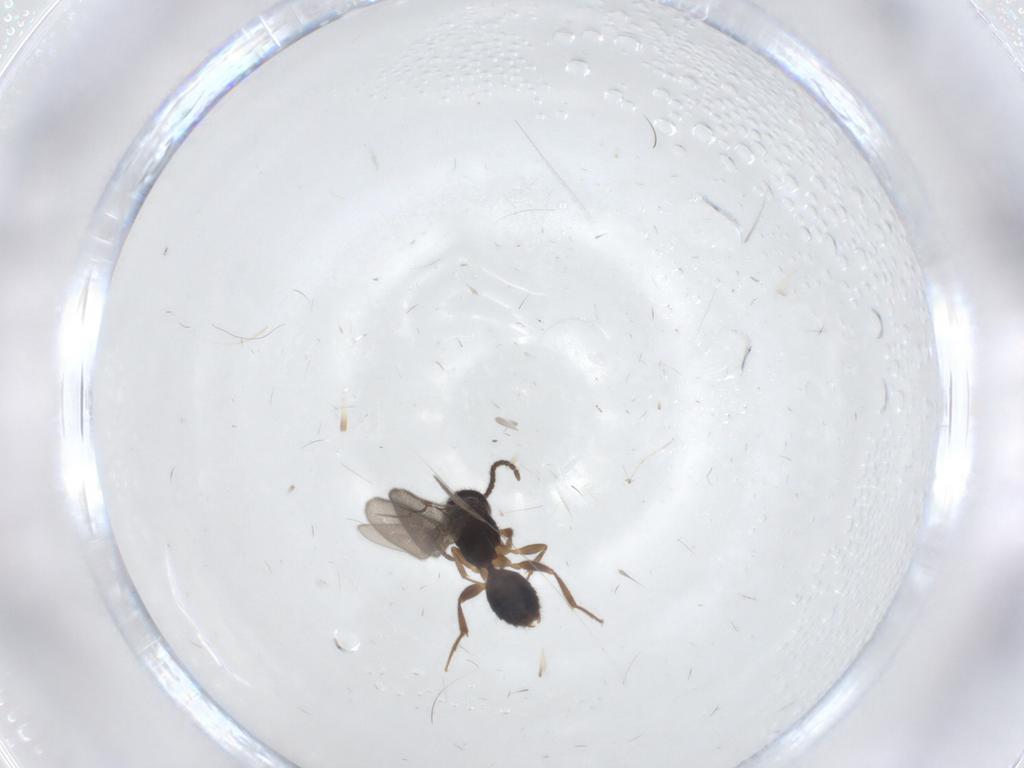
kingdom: Animalia
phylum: Arthropoda
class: Insecta
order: Hymenoptera
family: Bethylidae
